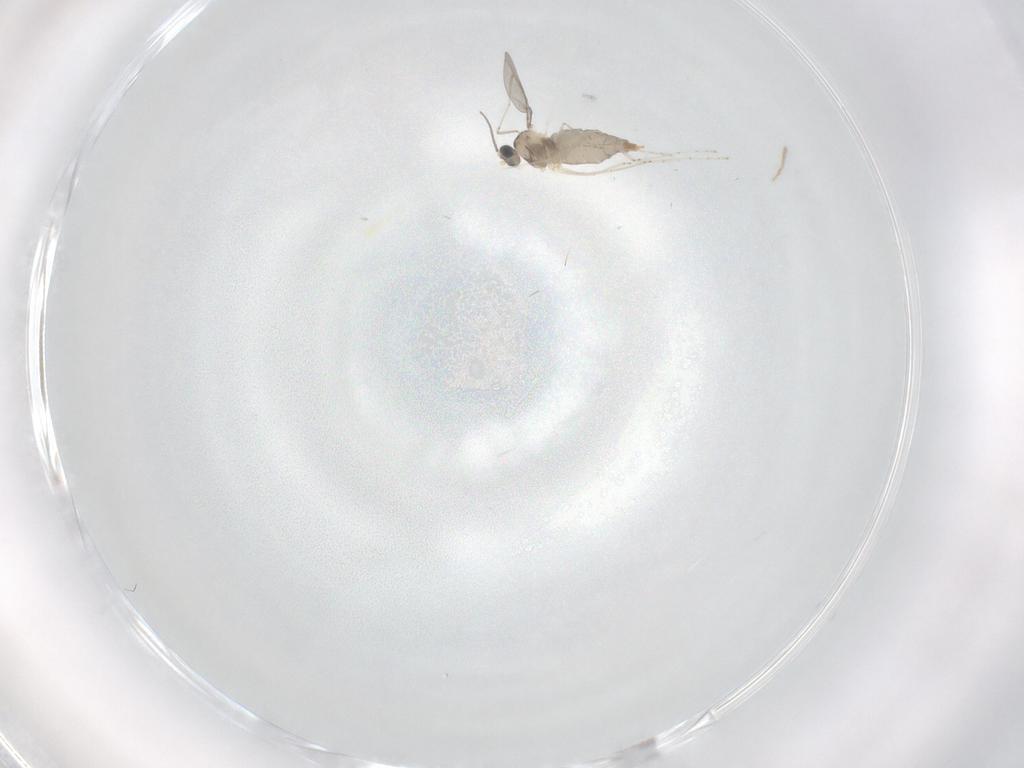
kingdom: Animalia
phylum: Arthropoda
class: Insecta
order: Diptera
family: Cecidomyiidae
